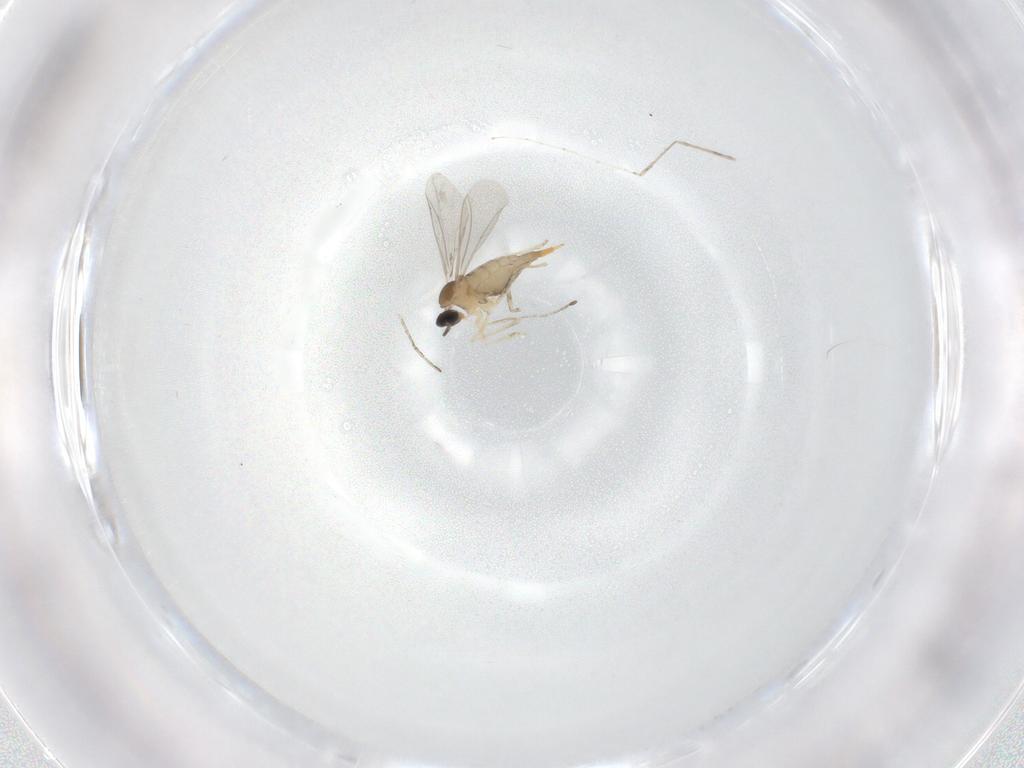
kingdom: Animalia
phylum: Arthropoda
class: Insecta
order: Diptera
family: Cecidomyiidae
